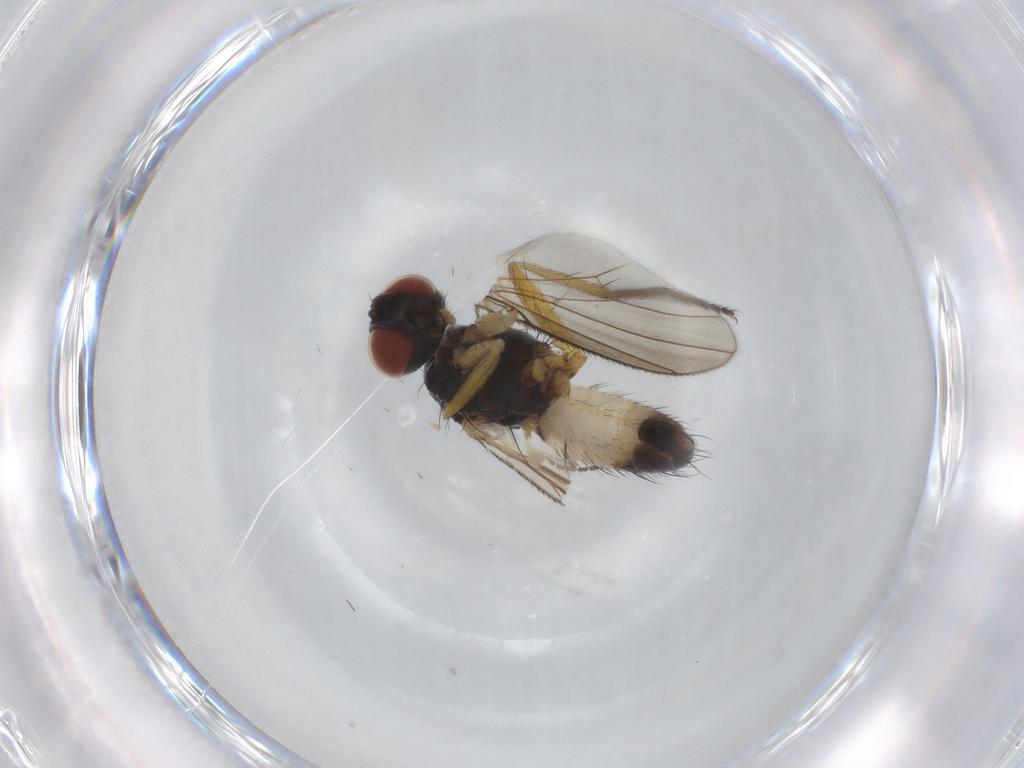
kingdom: Animalia
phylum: Arthropoda
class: Insecta
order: Diptera
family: Muscidae
